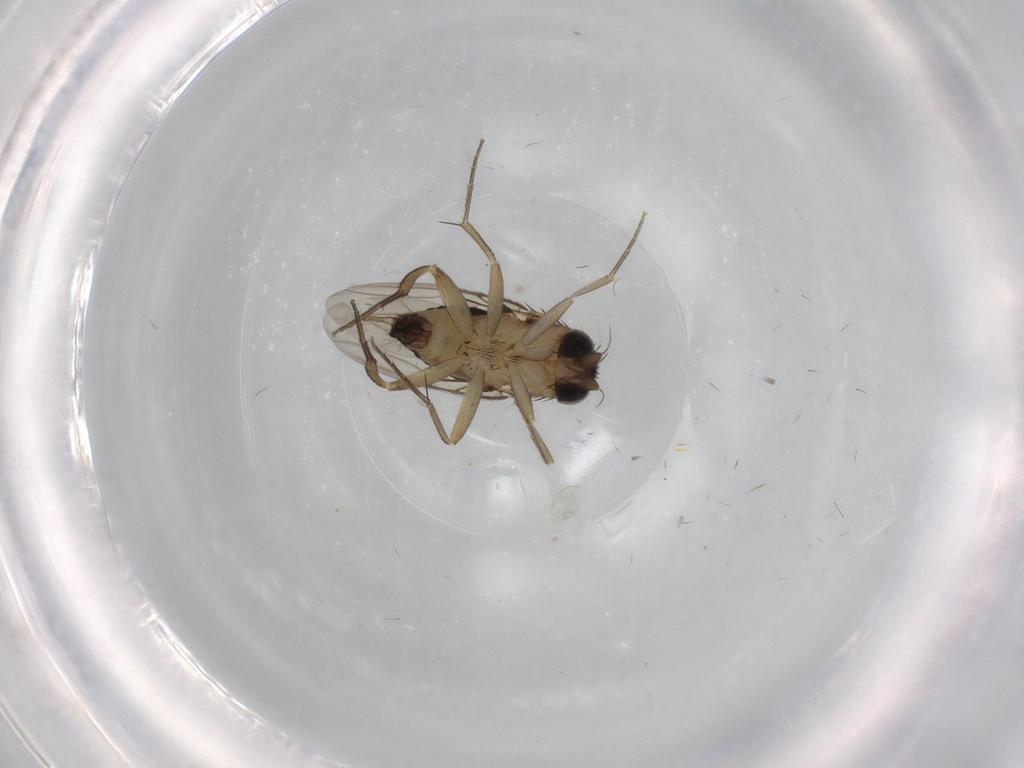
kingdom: Animalia
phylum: Arthropoda
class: Insecta
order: Diptera
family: Phoridae
